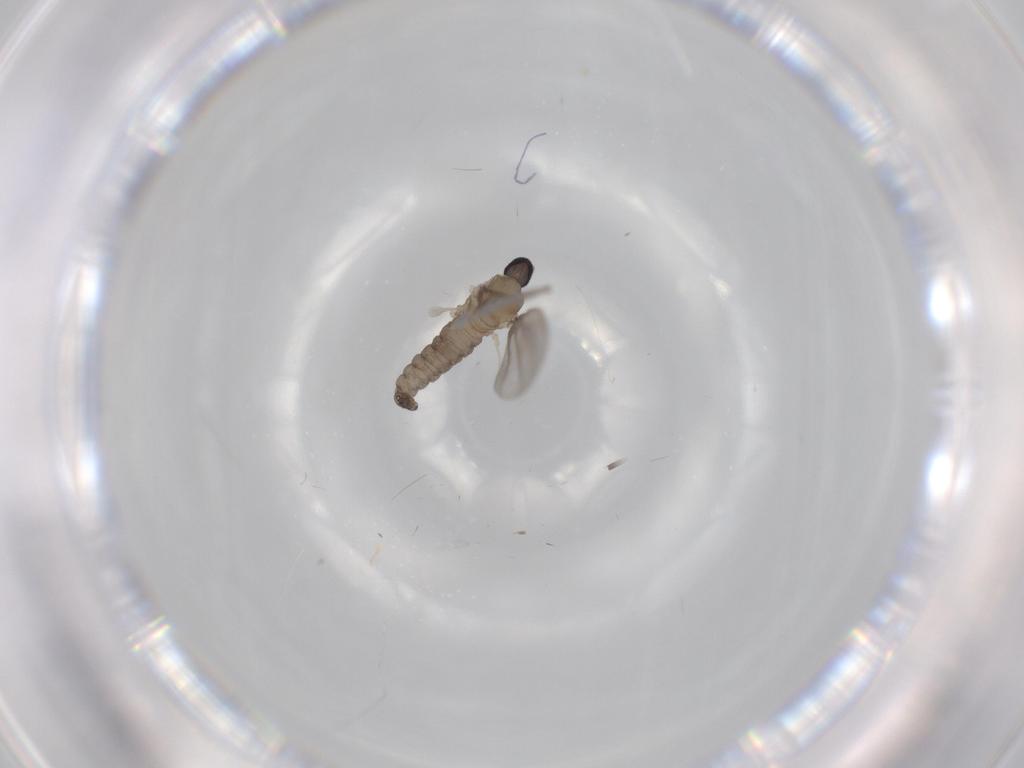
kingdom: Animalia
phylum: Arthropoda
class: Insecta
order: Diptera
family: Cecidomyiidae
